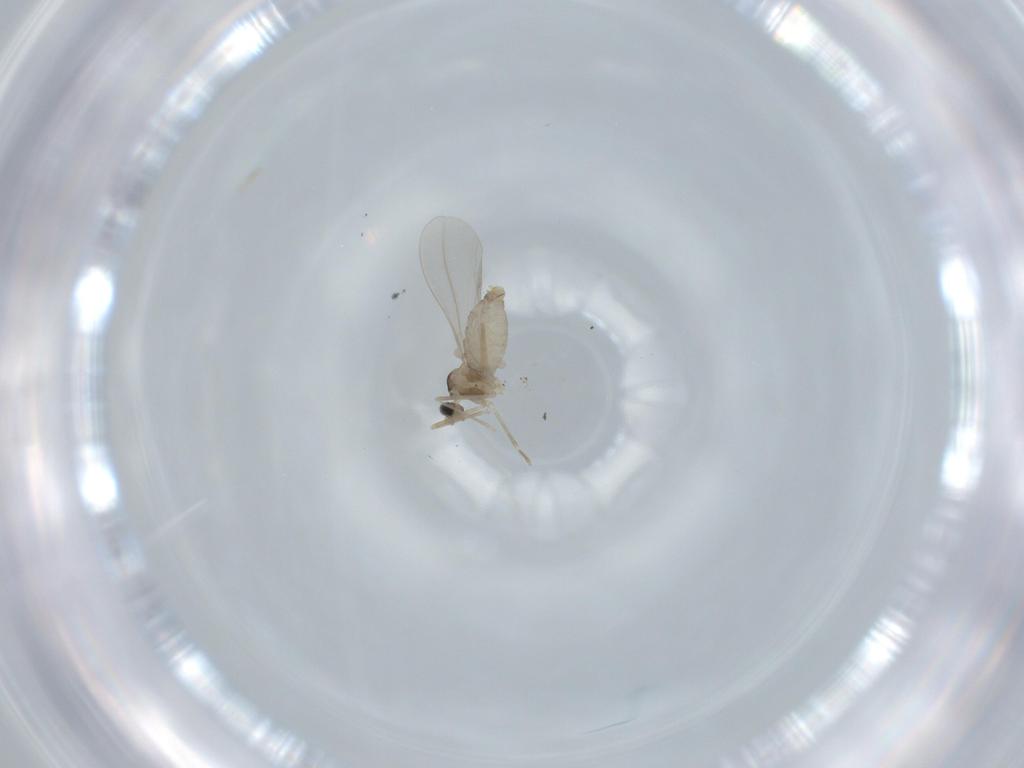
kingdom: Animalia
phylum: Arthropoda
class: Insecta
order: Diptera
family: Cecidomyiidae
